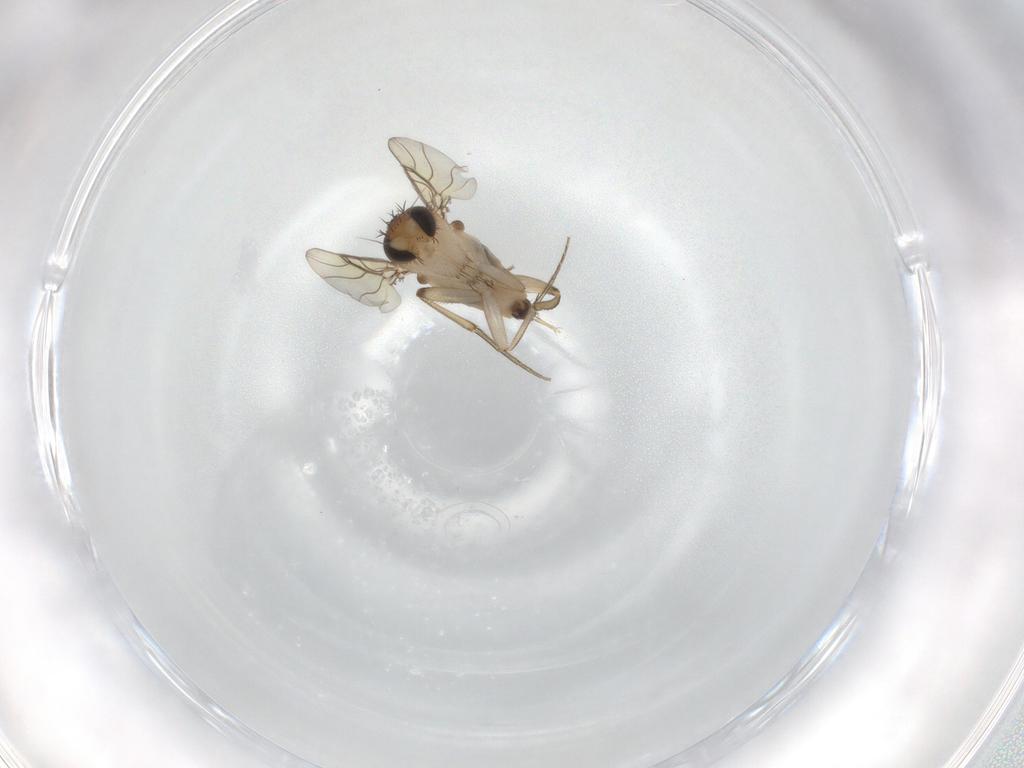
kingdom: Animalia
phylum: Arthropoda
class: Insecta
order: Diptera
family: Phoridae
